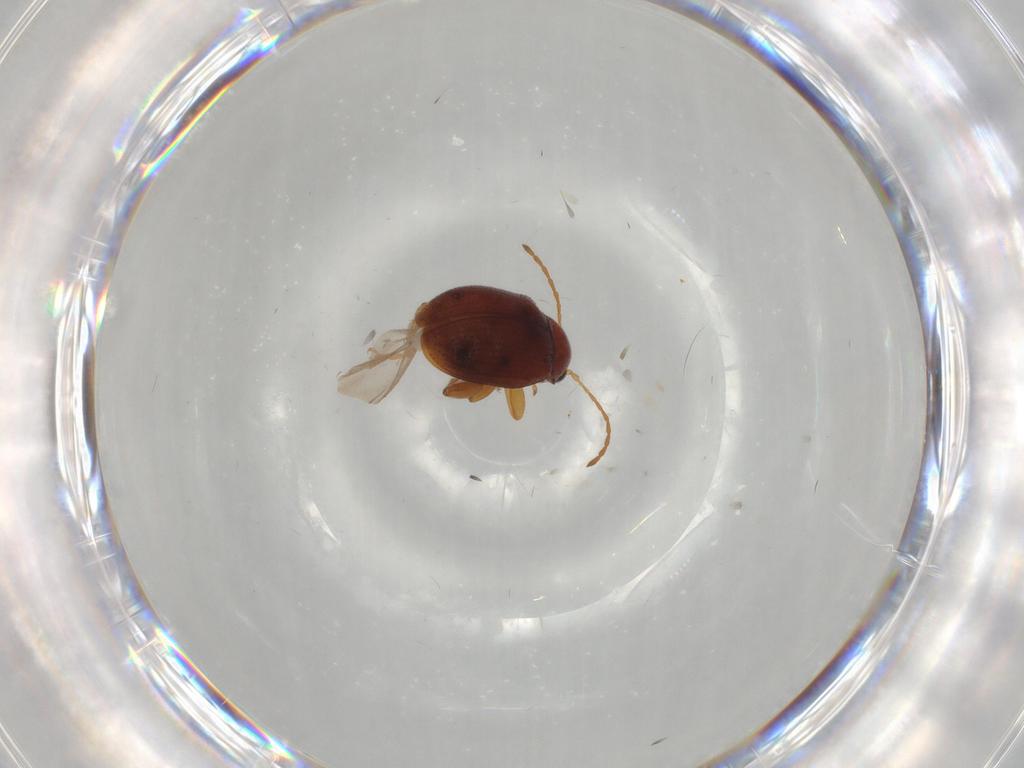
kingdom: Animalia
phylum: Arthropoda
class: Insecta
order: Coleoptera
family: Chrysomelidae
